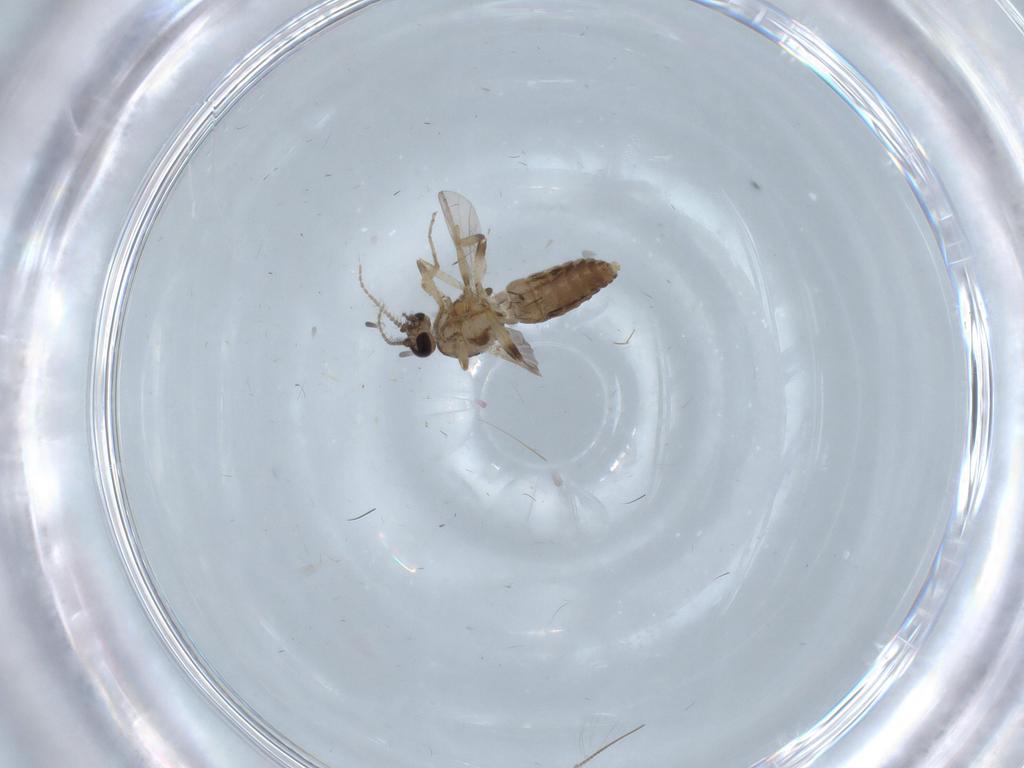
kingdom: Animalia
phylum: Arthropoda
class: Insecta
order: Diptera
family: Ceratopogonidae
